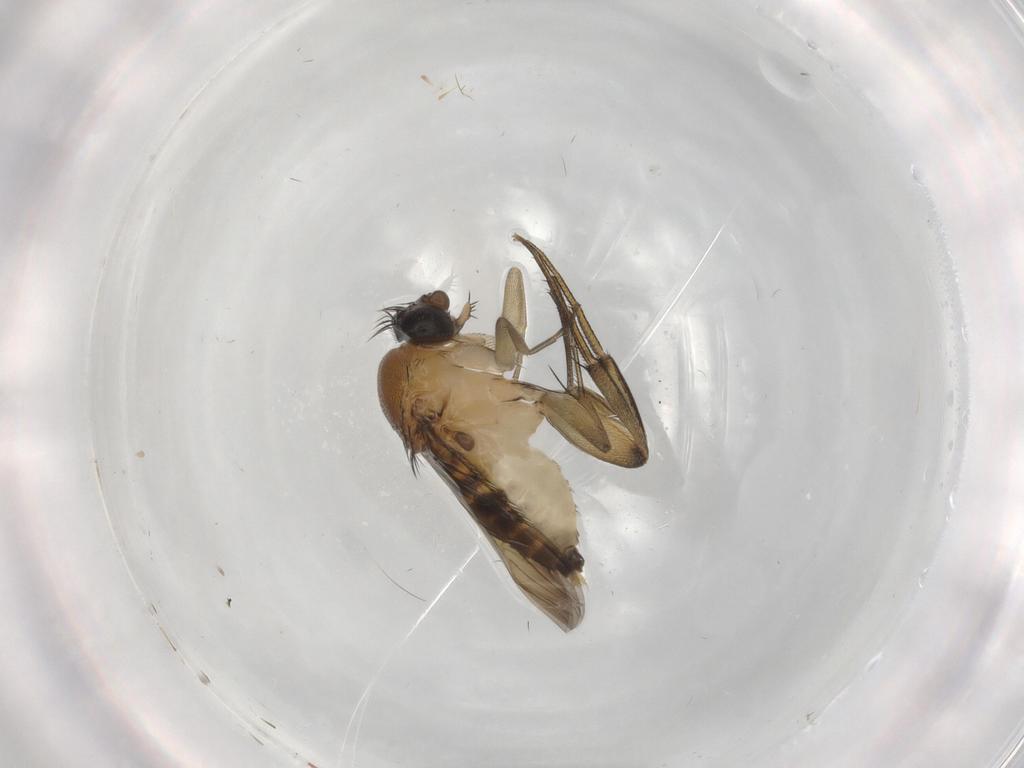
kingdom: Animalia
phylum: Arthropoda
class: Insecta
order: Diptera
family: Phoridae
